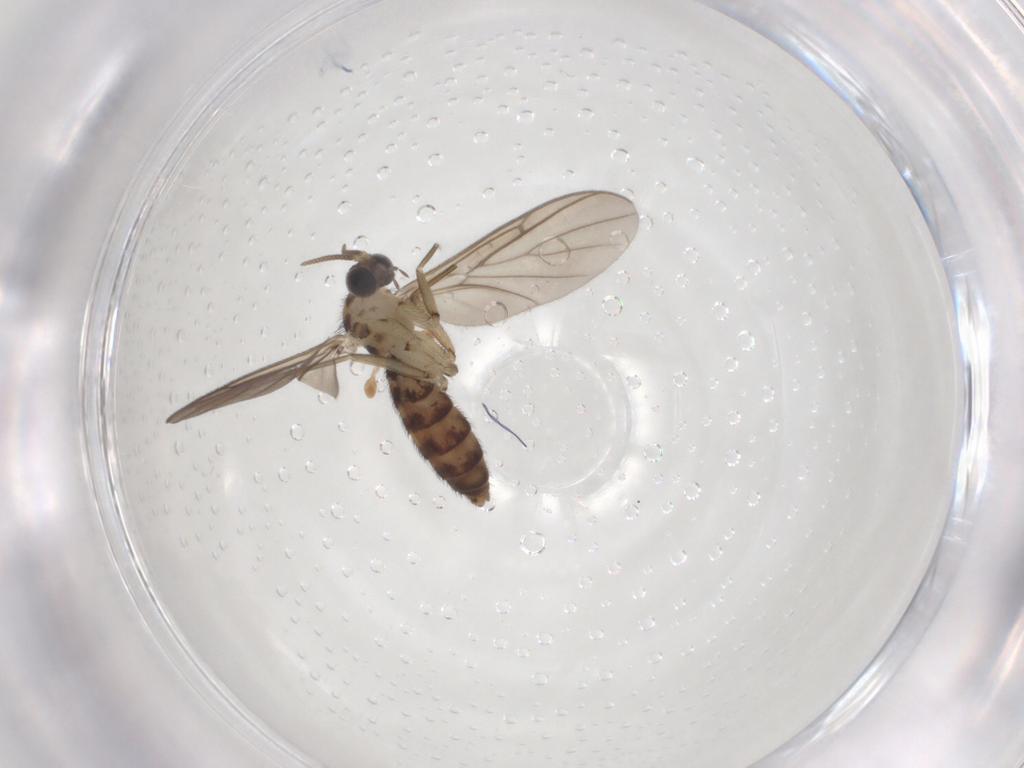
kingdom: Animalia
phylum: Arthropoda
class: Insecta
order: Diptera
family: Keroplatidae
